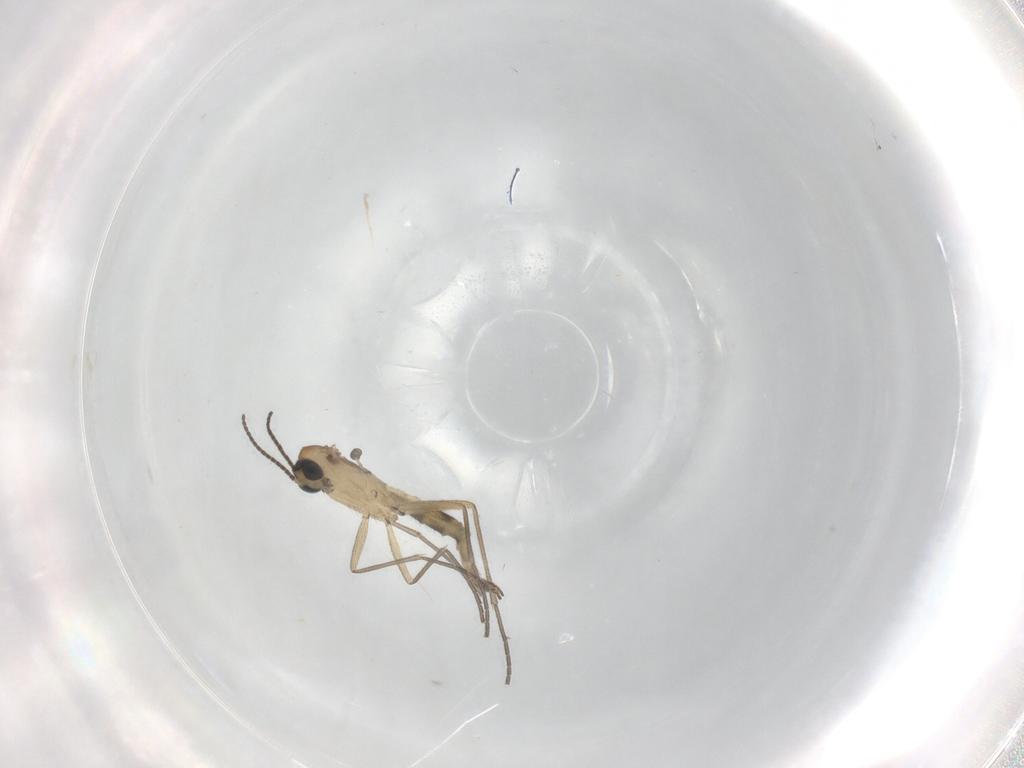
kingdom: Animalia
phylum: Arthropoda
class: Insecta
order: Diptera
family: Sciaridae
